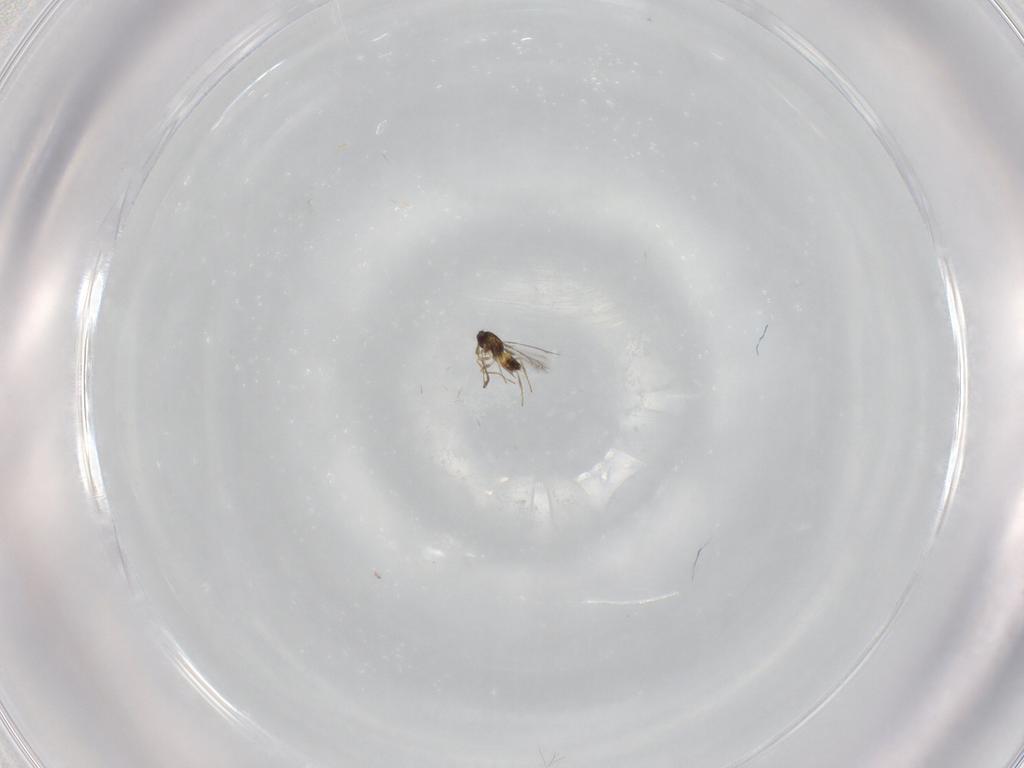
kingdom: Animalia
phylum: Arthropoda
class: Insecta
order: Hymenoptera
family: Mymaridae
